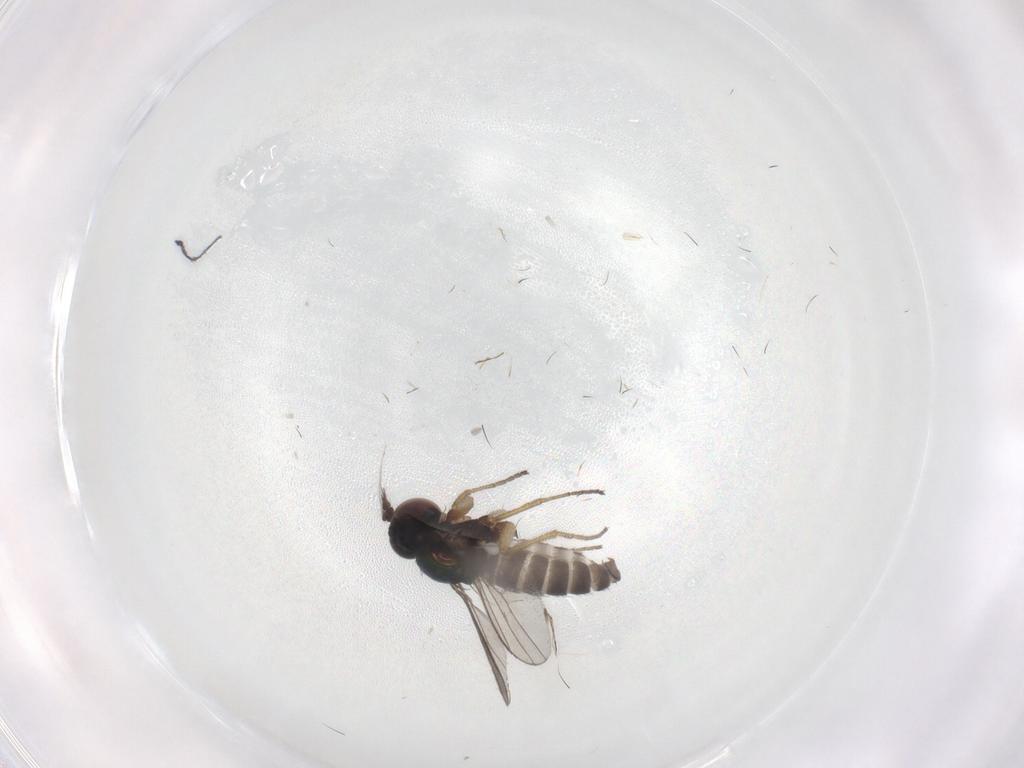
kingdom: Animalia
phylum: Arthropoda
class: Insecta
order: Diptera
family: Dolichopodidae
